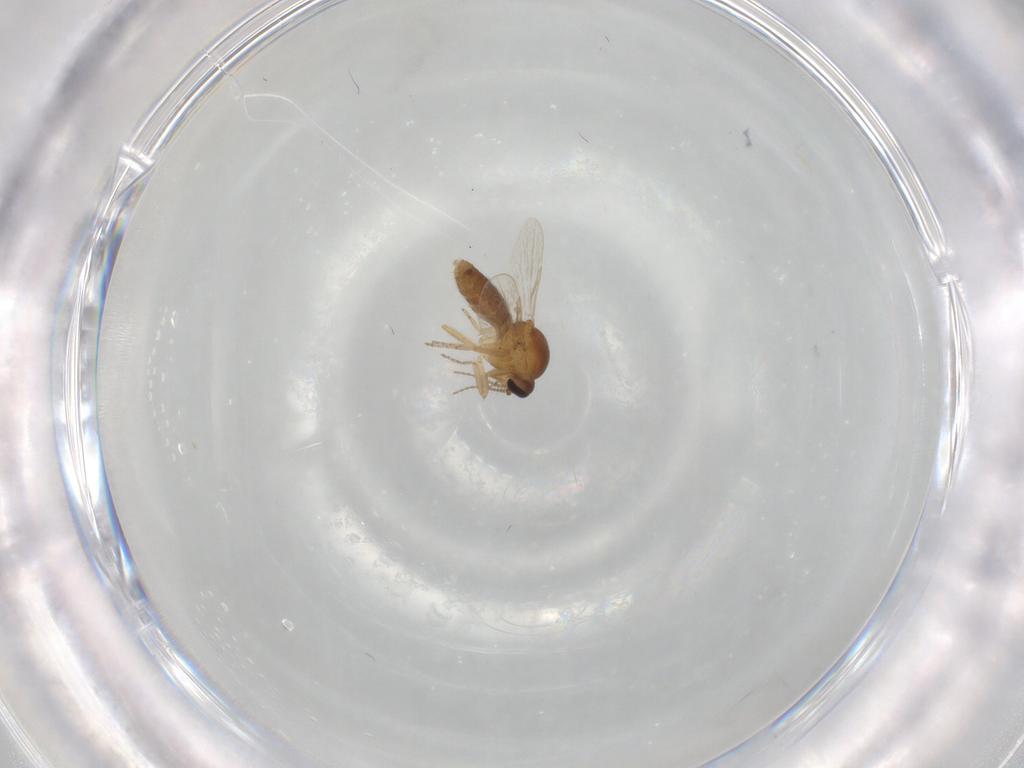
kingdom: Animalia
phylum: Arthropoda
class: Insecta
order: Diptera
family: Ceratopogonidae
